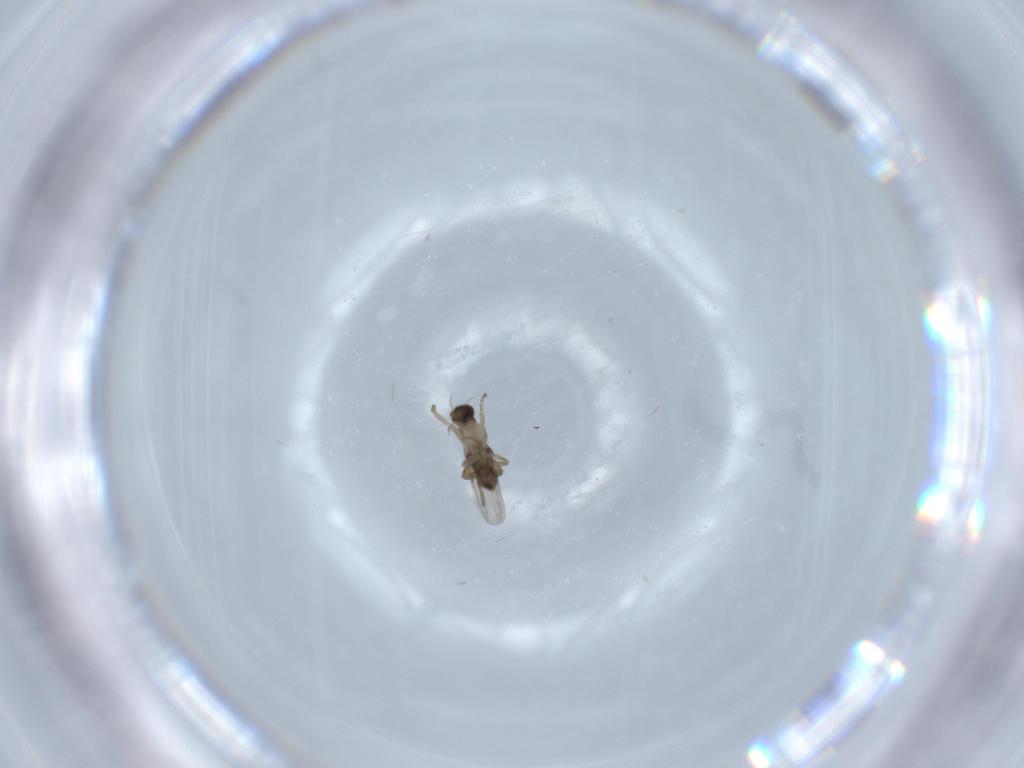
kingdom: Animalia
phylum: Arthropoda
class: Insecta
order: Diptera
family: Phoridae
